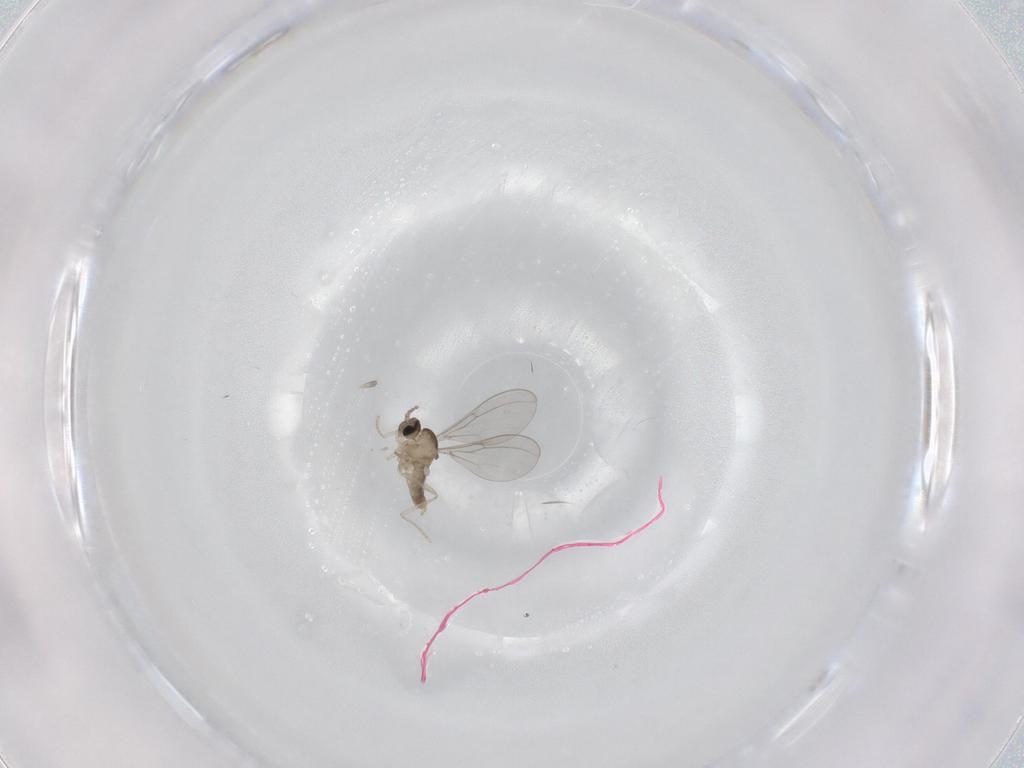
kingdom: Animalia
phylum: Arthropoda
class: Insecta
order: Diptera
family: Cecidomyiidae
